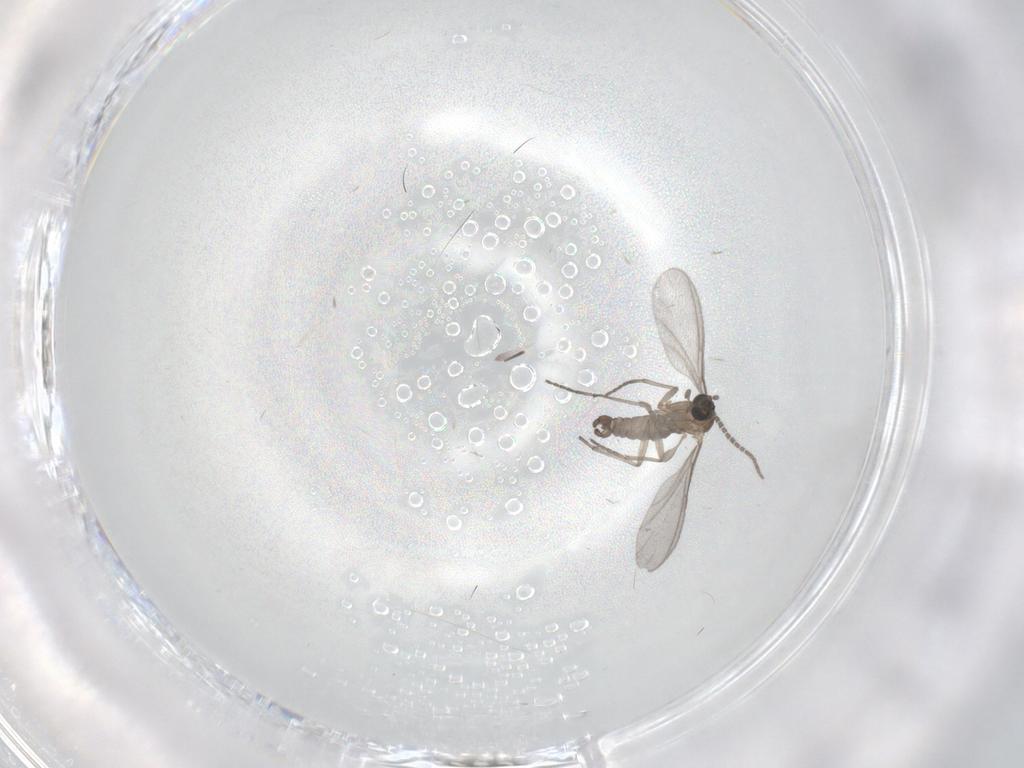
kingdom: Animalia
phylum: Arthropoda
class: Insecta
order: Diptera
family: Sciaridae
